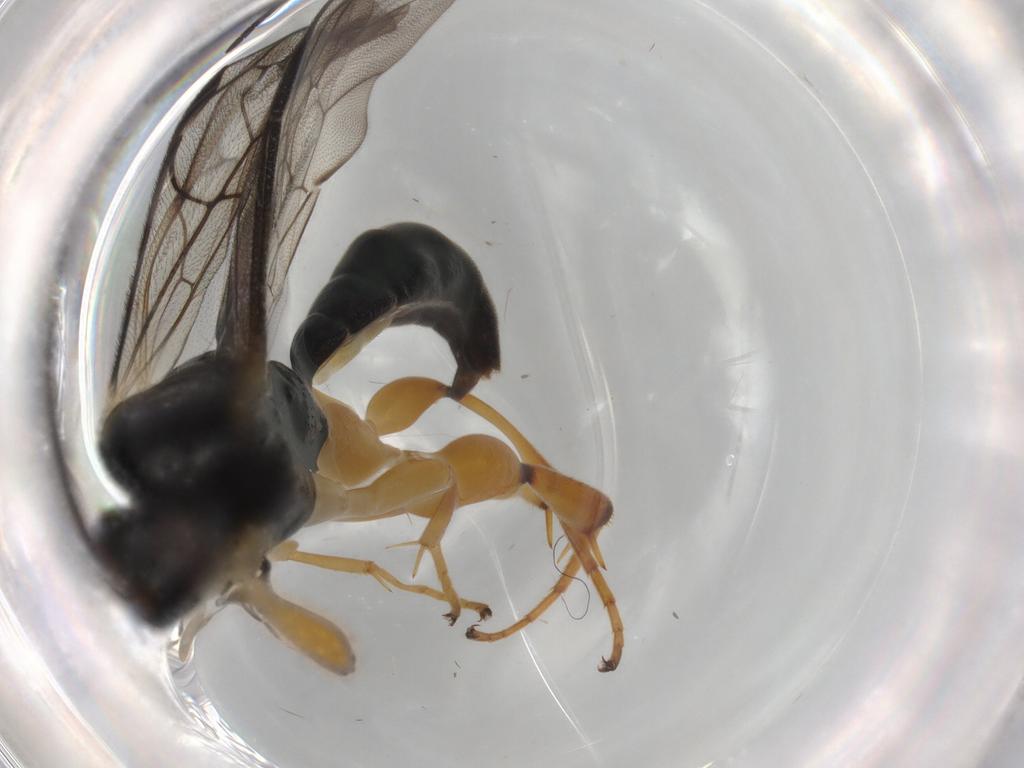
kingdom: Animalia
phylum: Arthropoda
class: Insecta
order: Hymenoptera
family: Ichneumonidae
